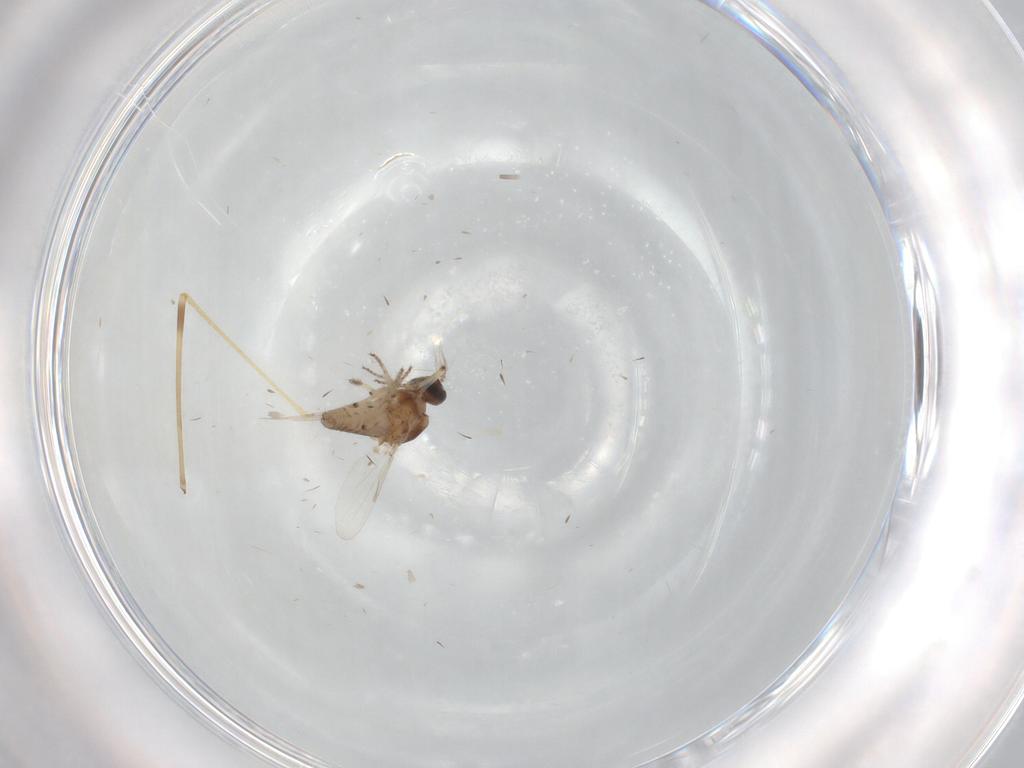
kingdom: Animalia
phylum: Arthropoda
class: Insecta
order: Diptera
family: Ceratopogonidae
